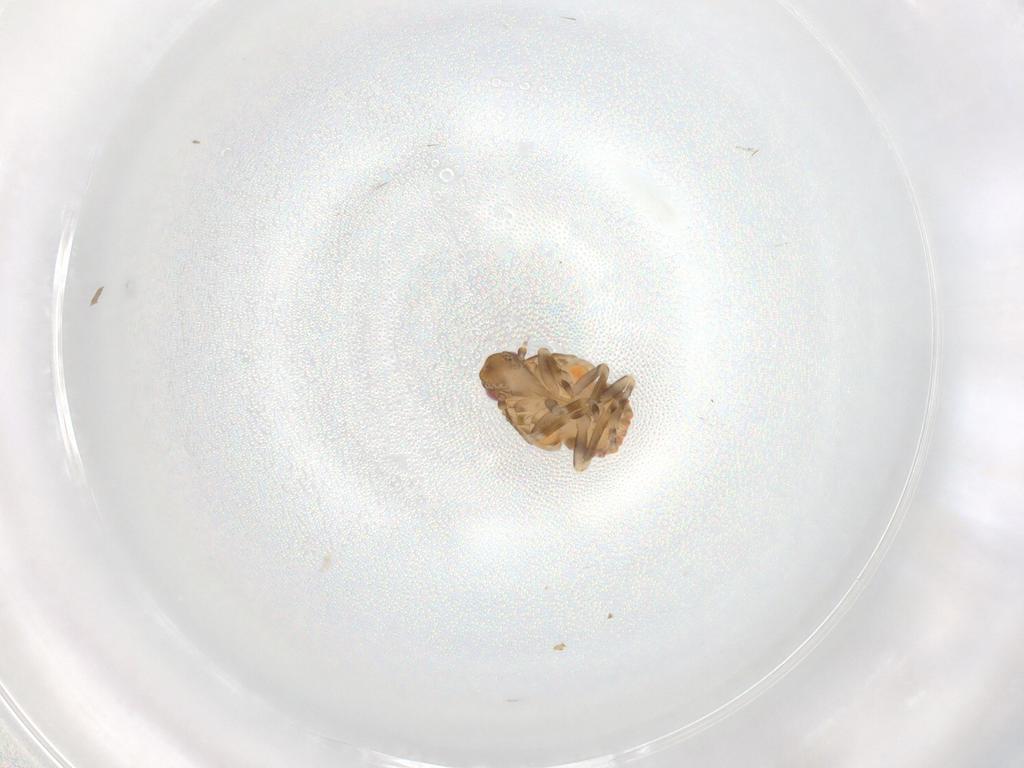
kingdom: Animalia
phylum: Arthropoda
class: Insecta
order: Hemiptera
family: Flatidae
